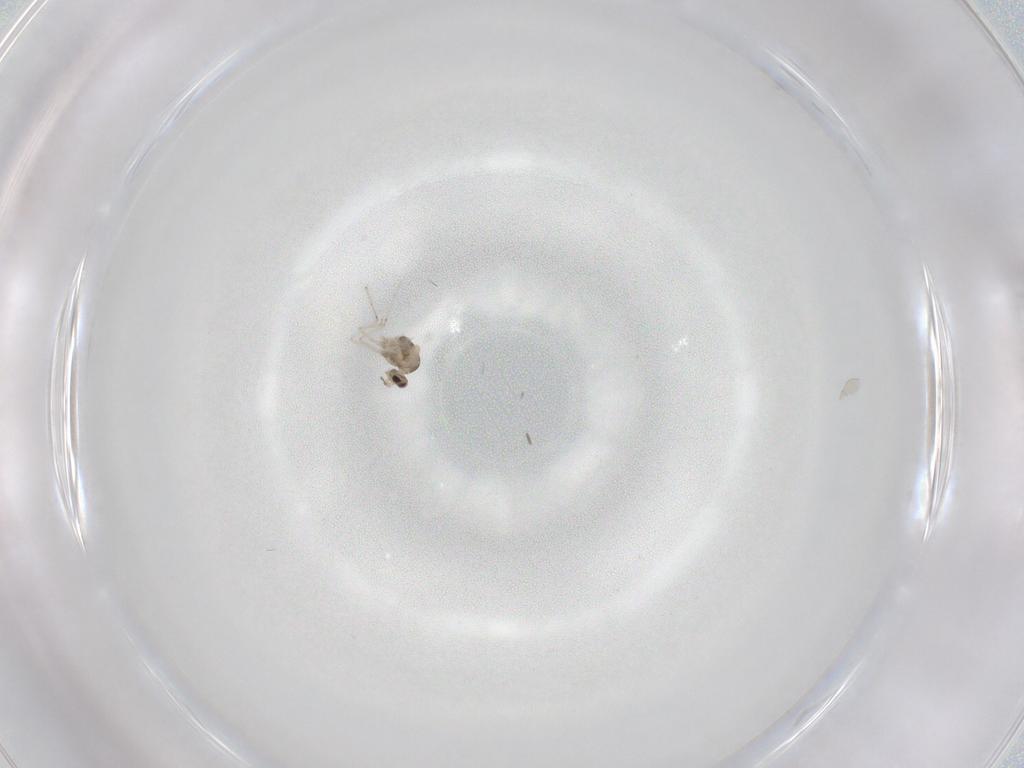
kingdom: Animalia
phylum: Arthropoda
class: Insecta
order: Diptera
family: Cecidomyiidae
